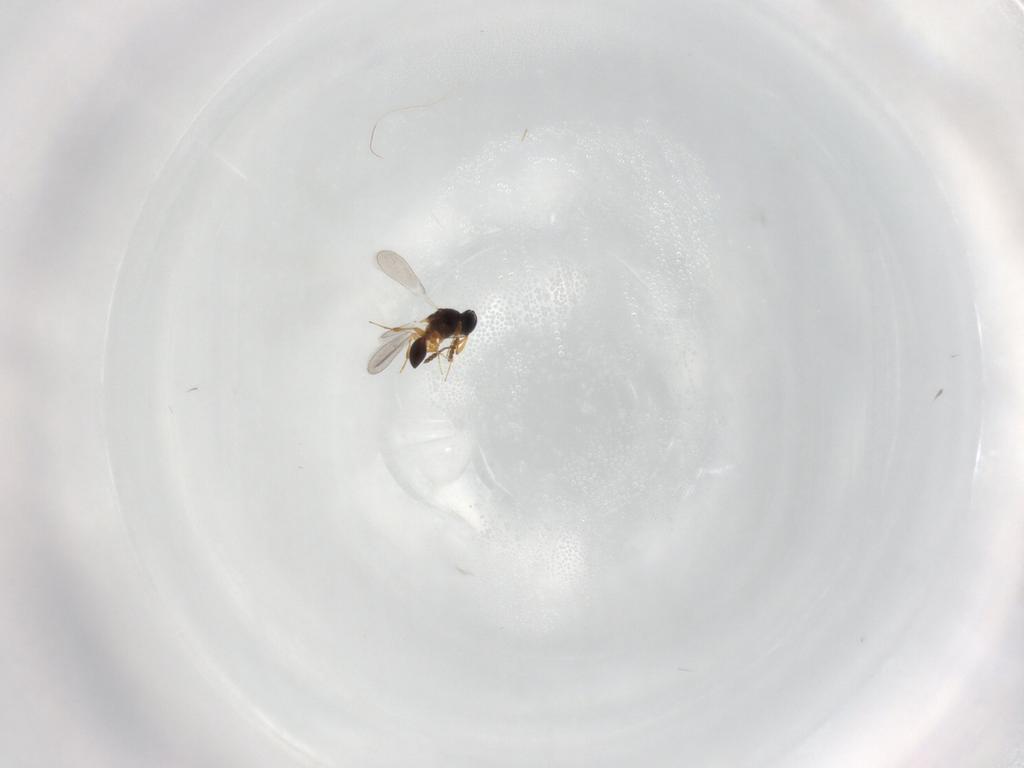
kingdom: Animalia
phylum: Arthropoda
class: Insecta
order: Hymenoptera
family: Platygastridae
